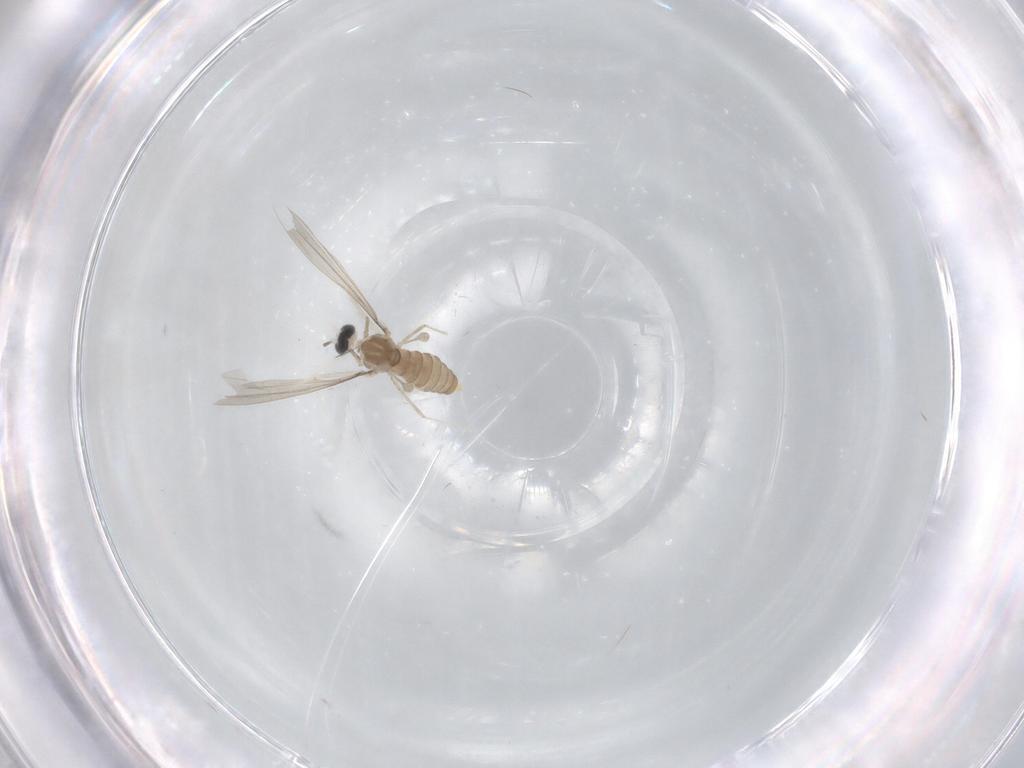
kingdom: Animalia
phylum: Arthropoda
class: Insecta
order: Diptera
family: Cecidomyiidae
